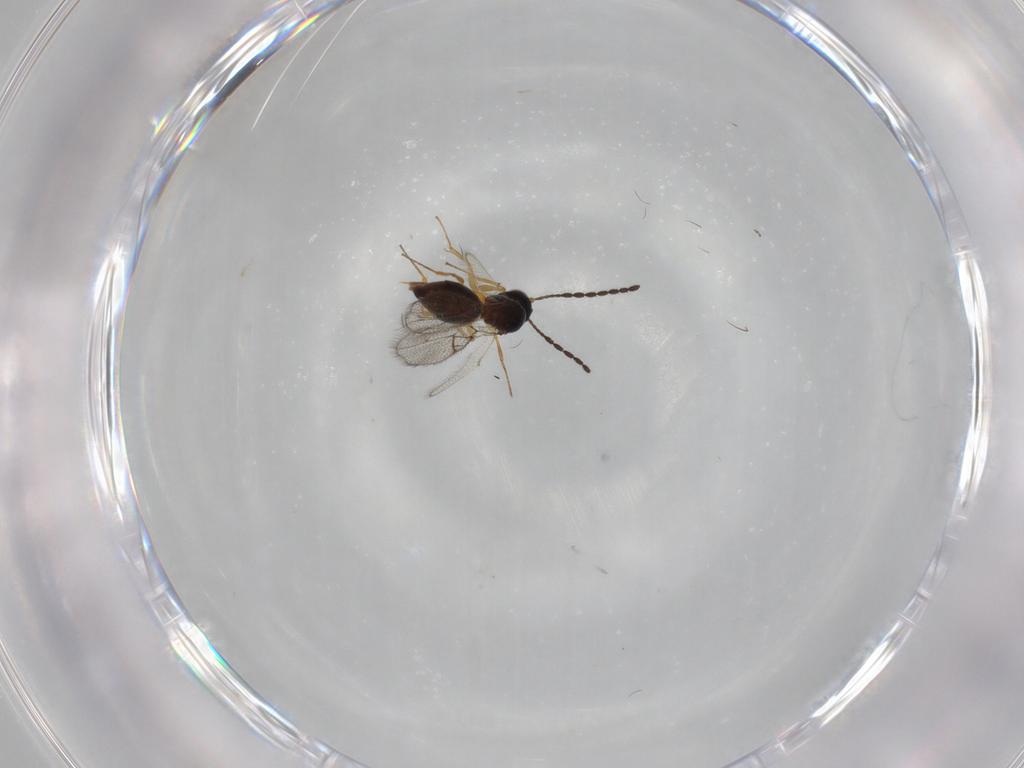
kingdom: Animalia
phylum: Arthropoda
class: Insecta
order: Hymenoptera
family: Figitidae
